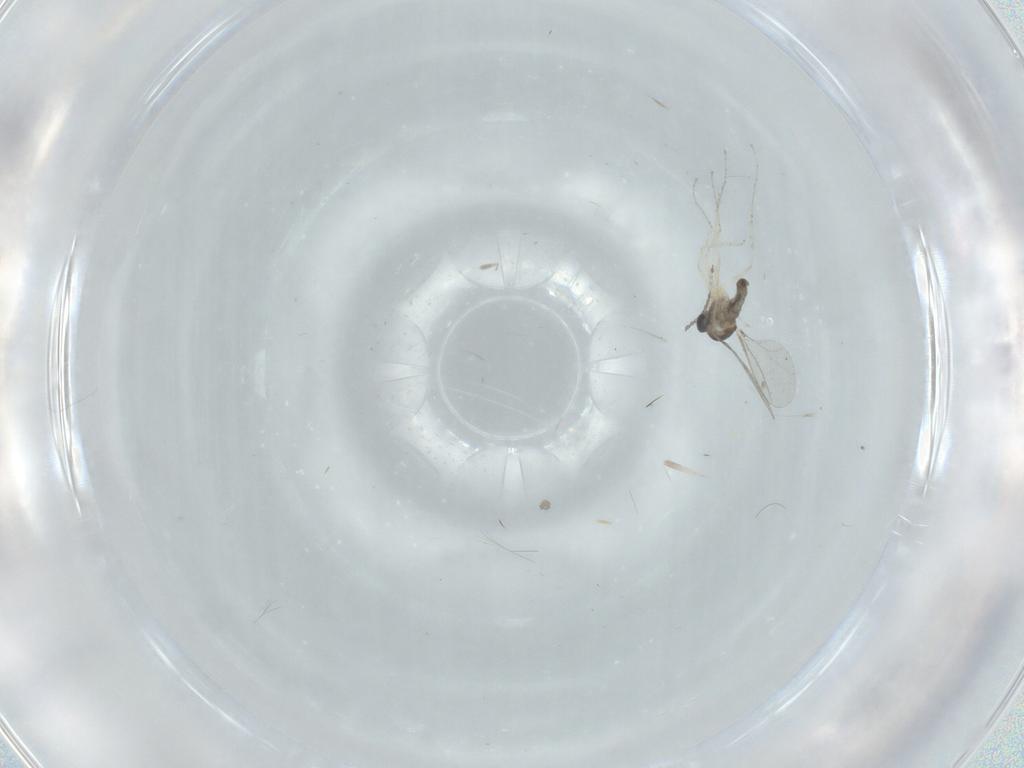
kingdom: Animalia
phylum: Arthropoda
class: Insecta
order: Diptera
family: Cecidomyiidae
